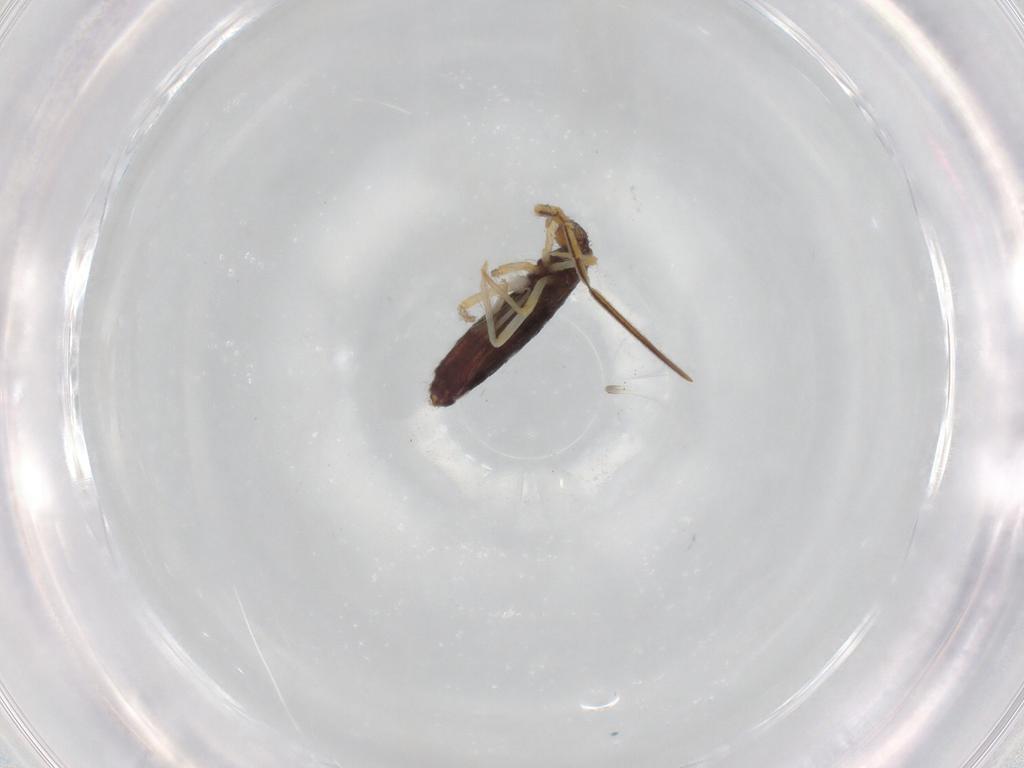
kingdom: Animalia
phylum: Arthropoda
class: Collembola
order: Entomobryomorpha
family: Entomobryidae
